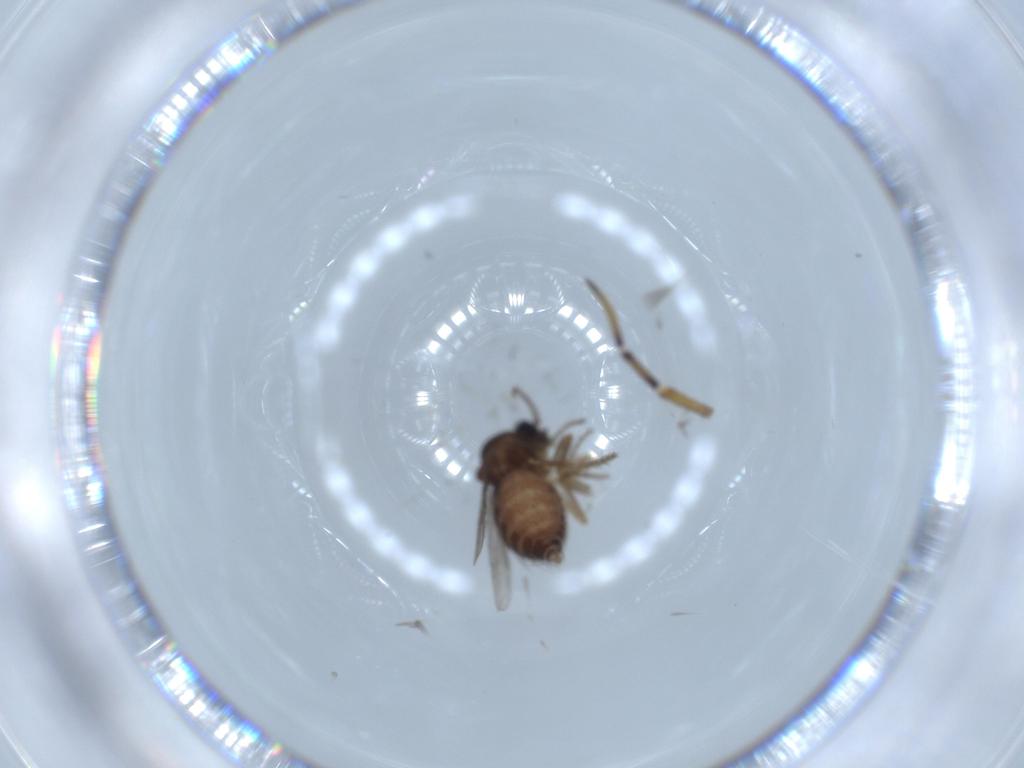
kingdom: Animalia
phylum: Arthropoda
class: Insecta
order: Diptera
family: Ceratopogonidae
